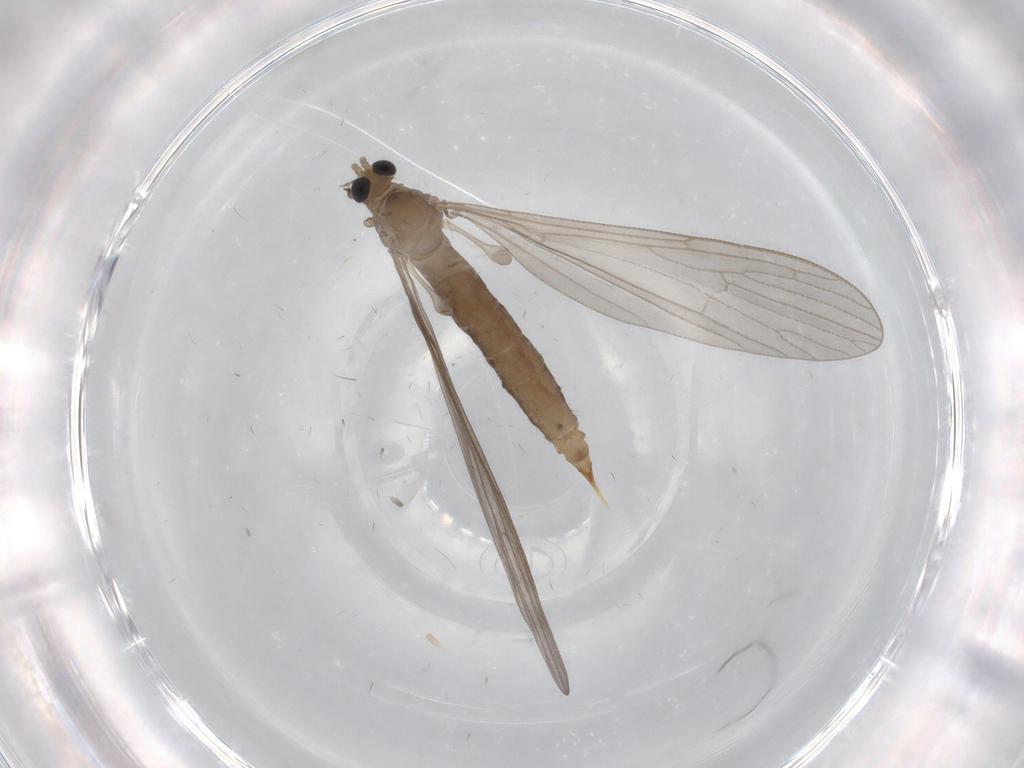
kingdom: Animalia
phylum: Arthropoda
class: Insecta
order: Diptera
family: Limoniidae
